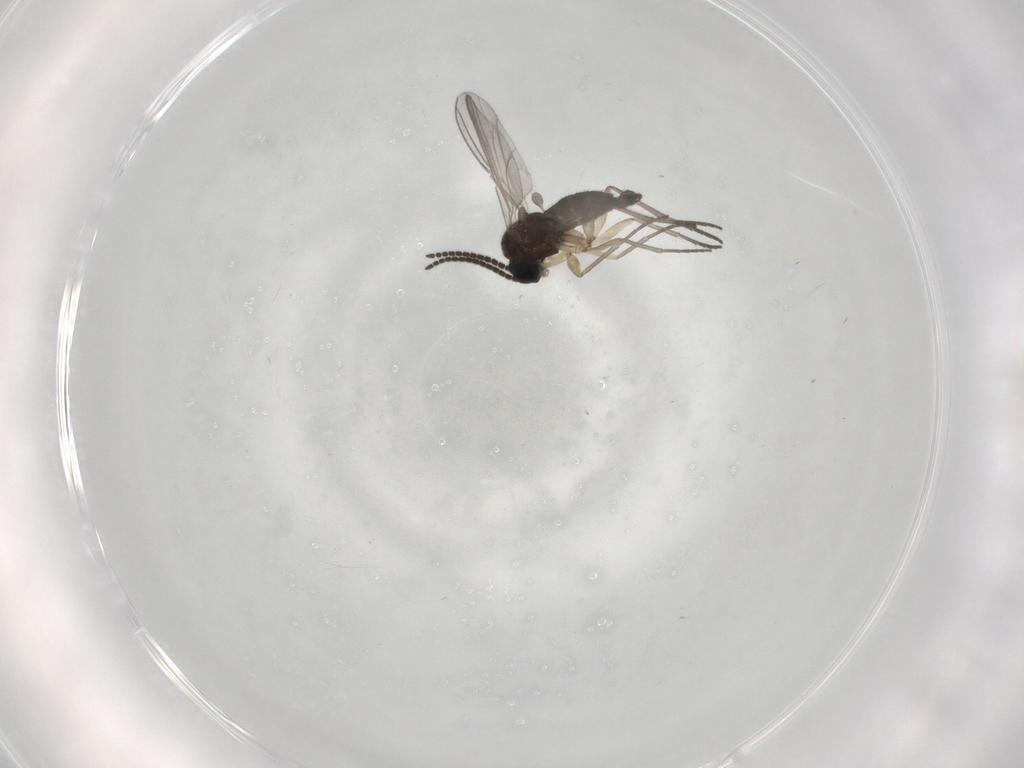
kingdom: Animalia
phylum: Arthropoda
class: Insecta
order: Diptera
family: Sciaridae
